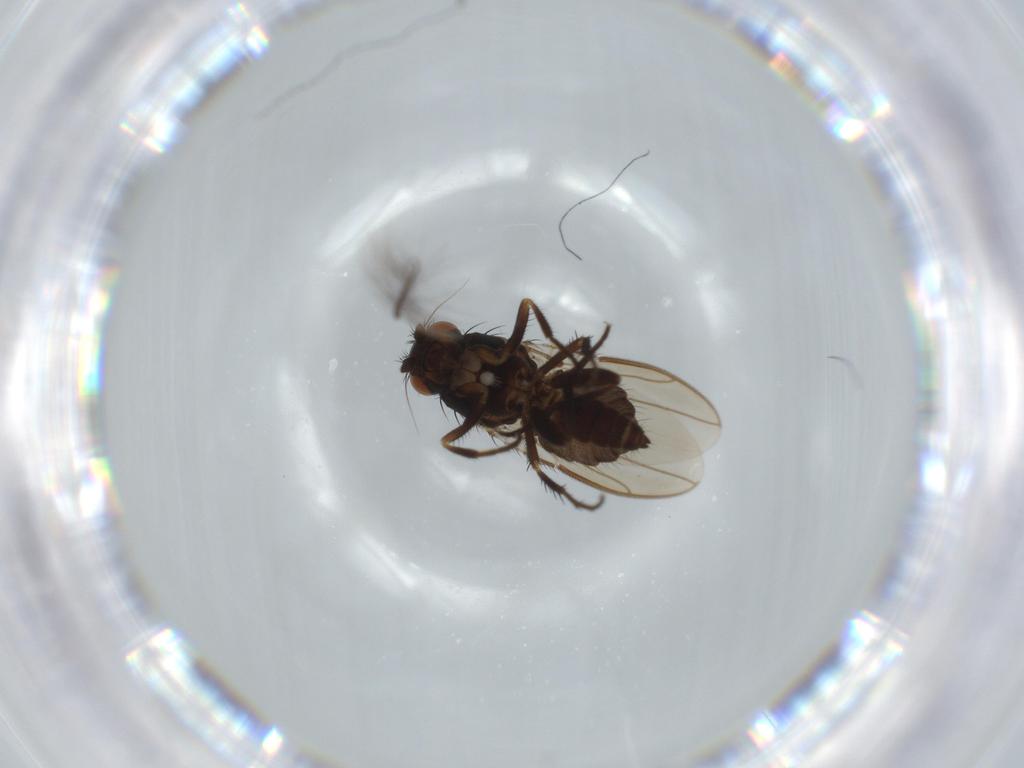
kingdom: Animalia
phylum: Arthropoda
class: Insecta
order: Diptera
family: Sphaeroceridae
